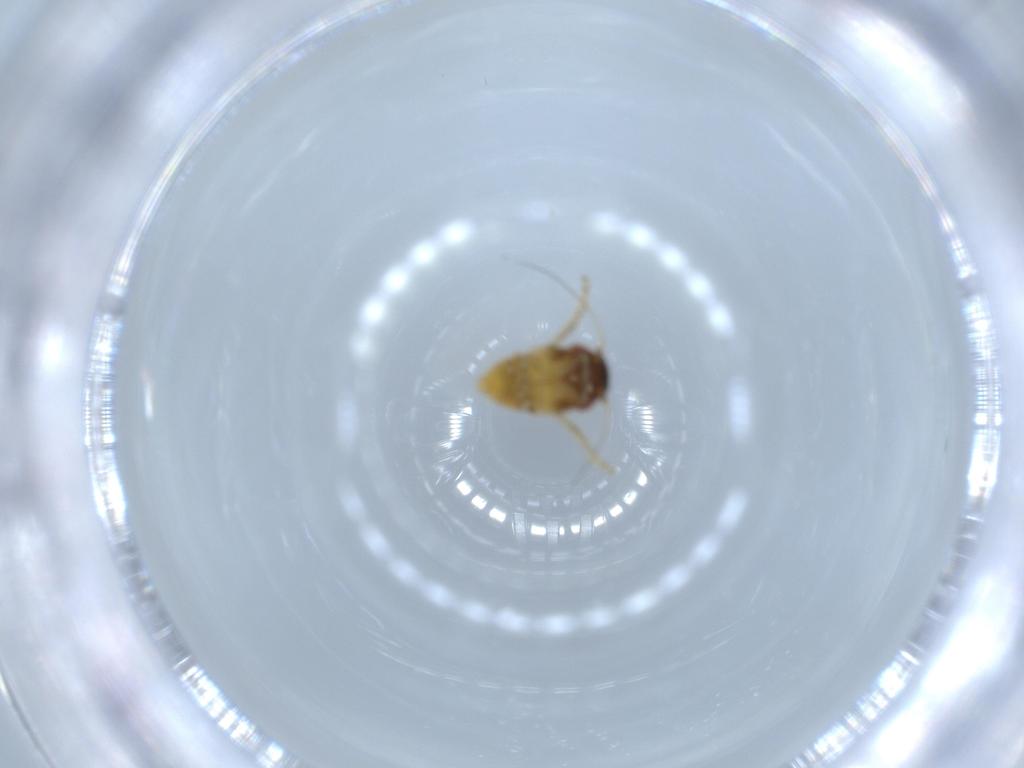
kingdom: Animalia
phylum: Arthropoda
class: Insecta
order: Hemiptera
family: Cicadellidae
